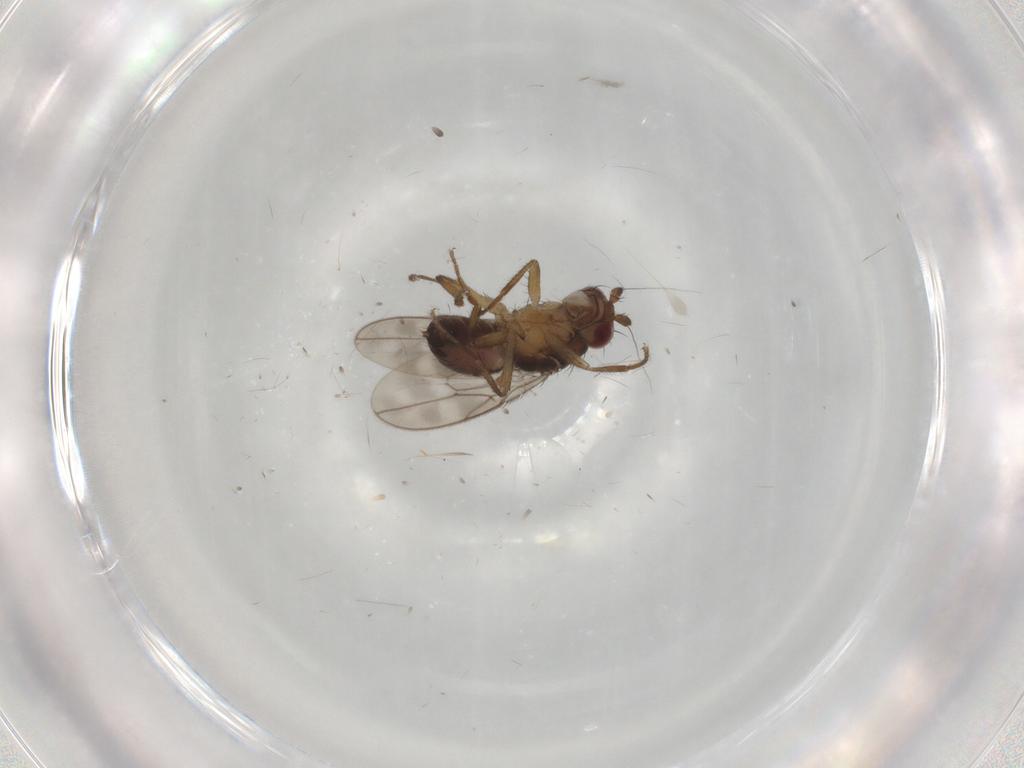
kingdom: Animalia
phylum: Arthropoda
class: Insecta
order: Diptera
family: Sphaeroceridae
